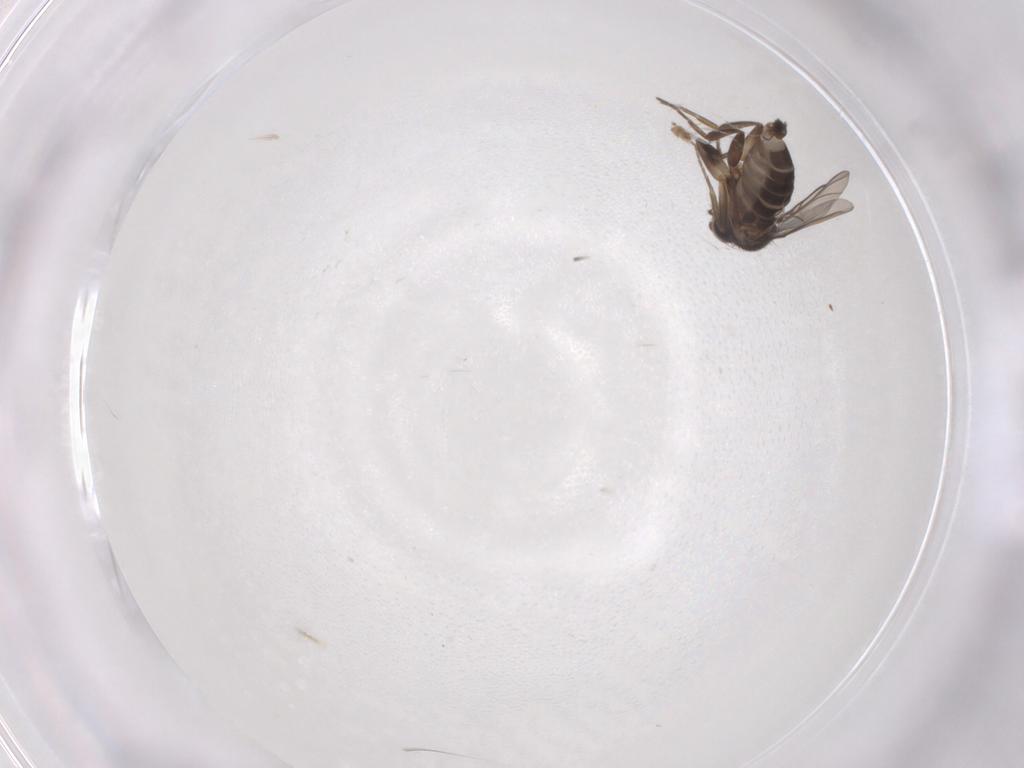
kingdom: Animalia
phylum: Arthropoda
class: Insecta
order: Diptera
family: Phoridae
